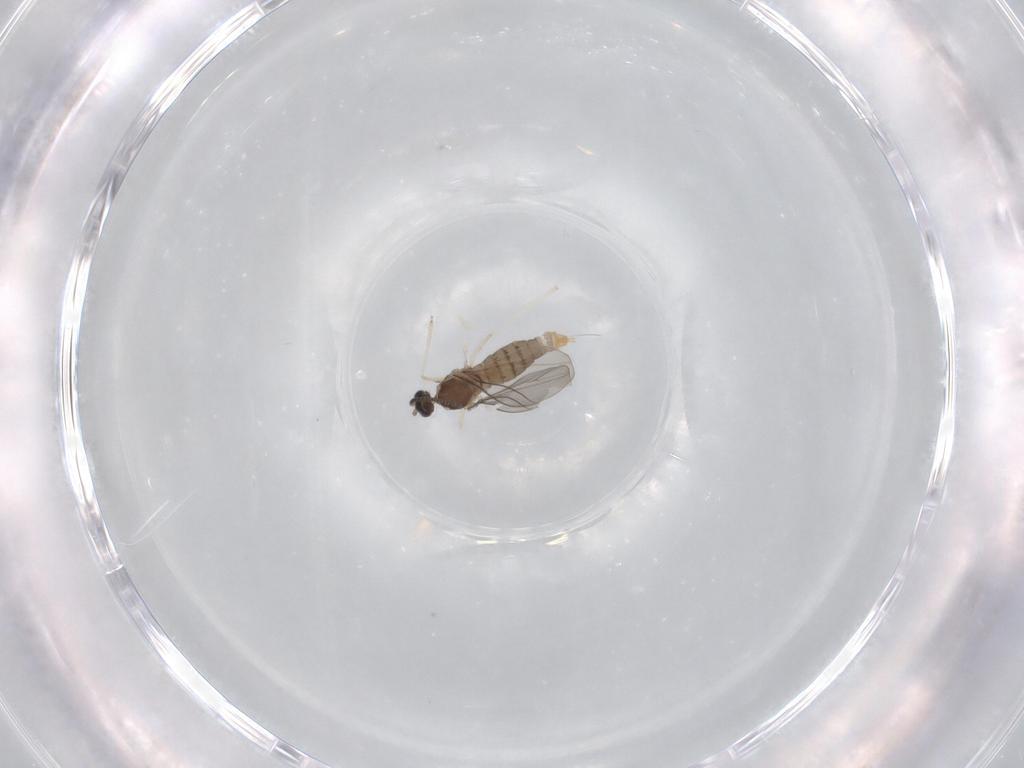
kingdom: Animalia
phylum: Arthropoda
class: Insecta
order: Diptera
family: Cecidomyiidae
